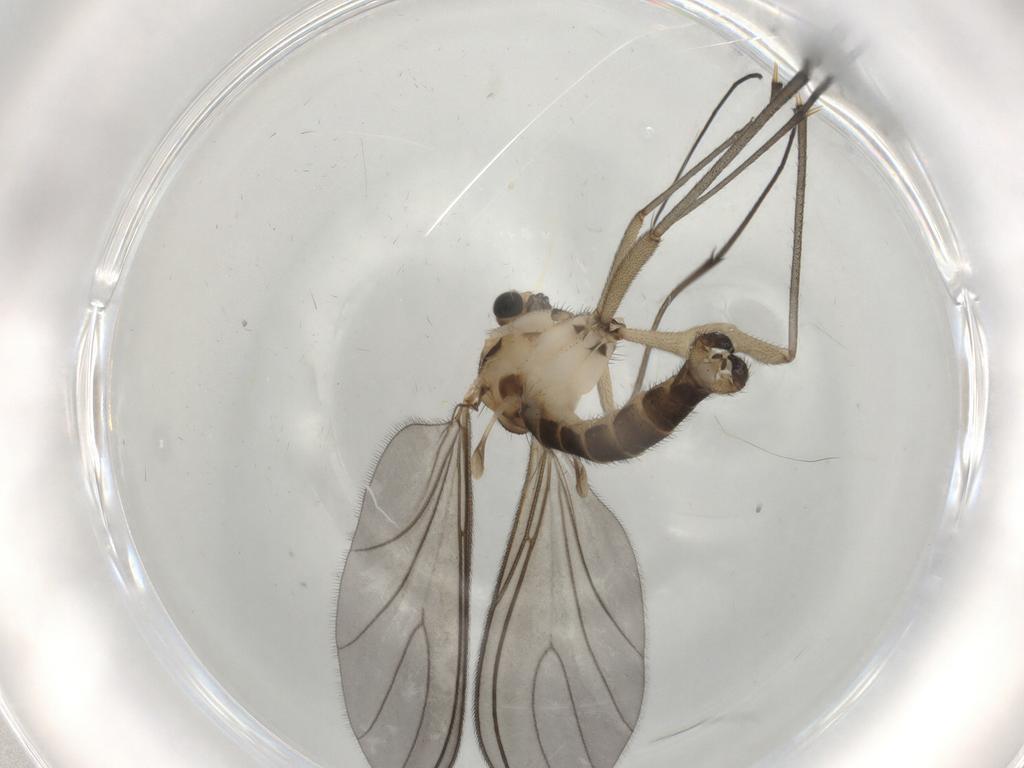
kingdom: Animalia
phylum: Arthropoda
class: Insecta
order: Diptera
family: Sciaridae
